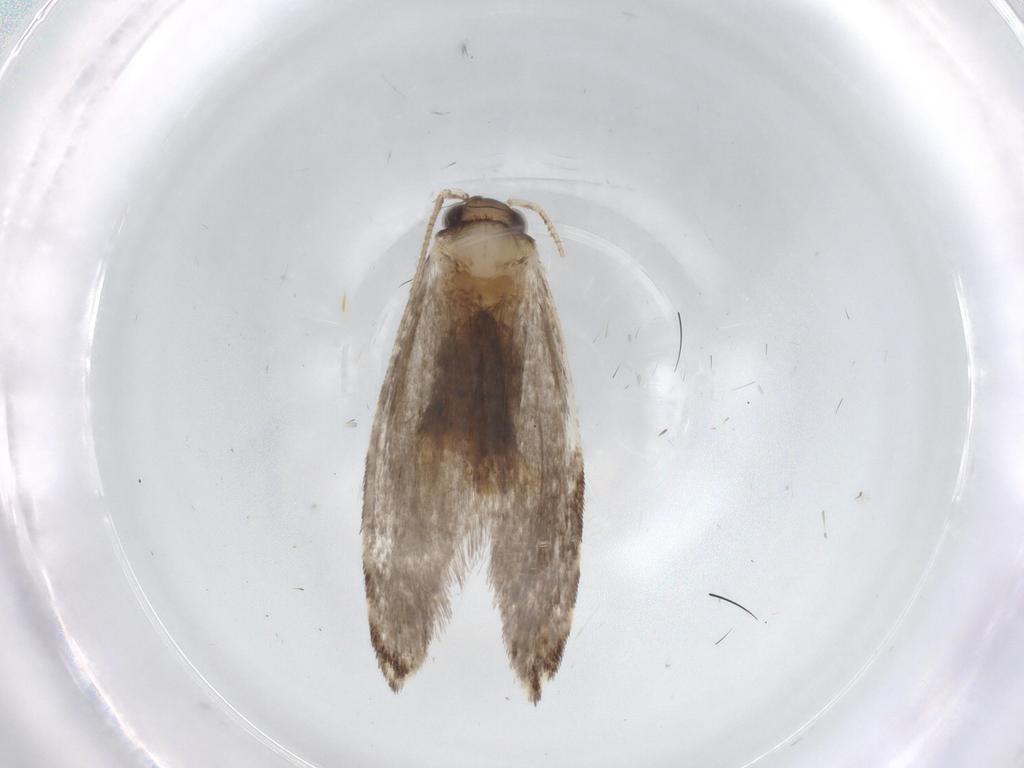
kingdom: Animalia
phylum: Arthropoda
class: Insecta
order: Lepidoptera
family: Tineidae
